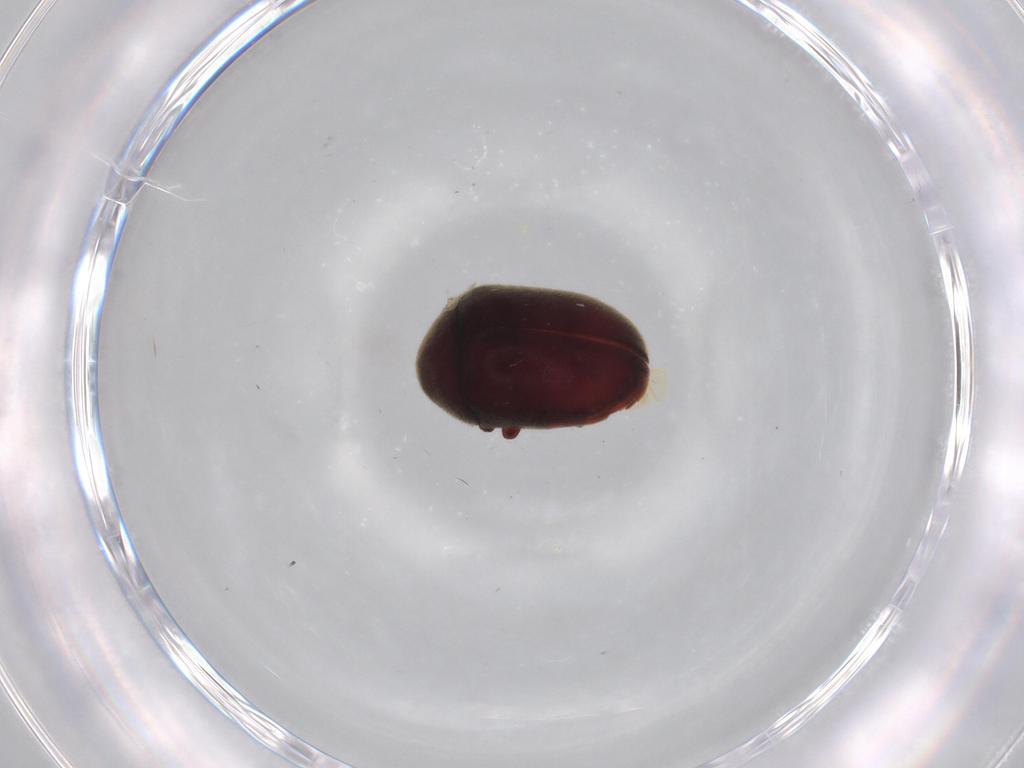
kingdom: Animalia
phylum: Arthropoda
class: Insecta
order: Coleoptera
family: Ptinidae
